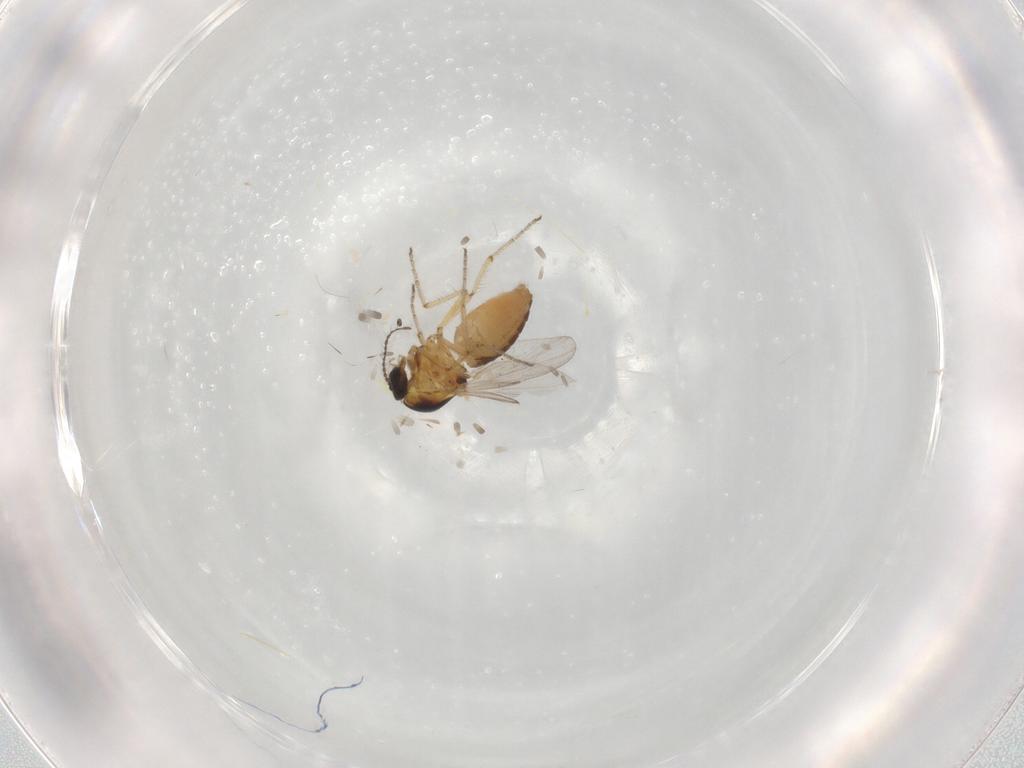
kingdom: Animalia
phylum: Arthropoda
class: Insecta
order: Diptera
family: Ceratopogonidae
